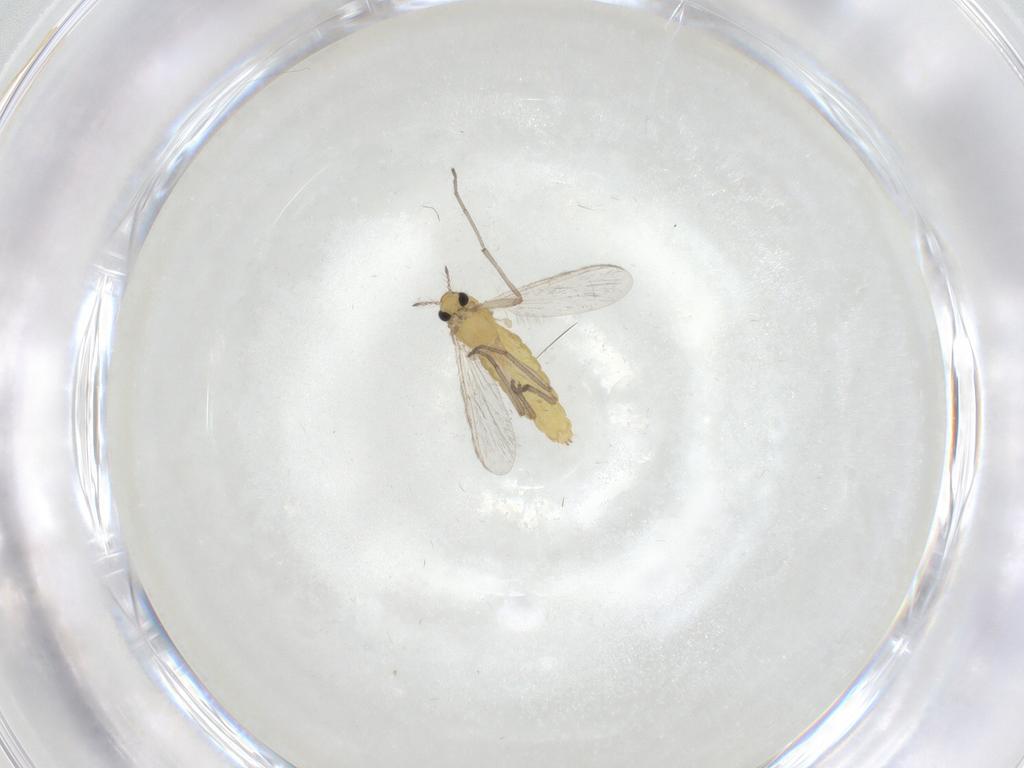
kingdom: Animalia
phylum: Arthropoda
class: Insecta
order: Diptera
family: Chironomidae
